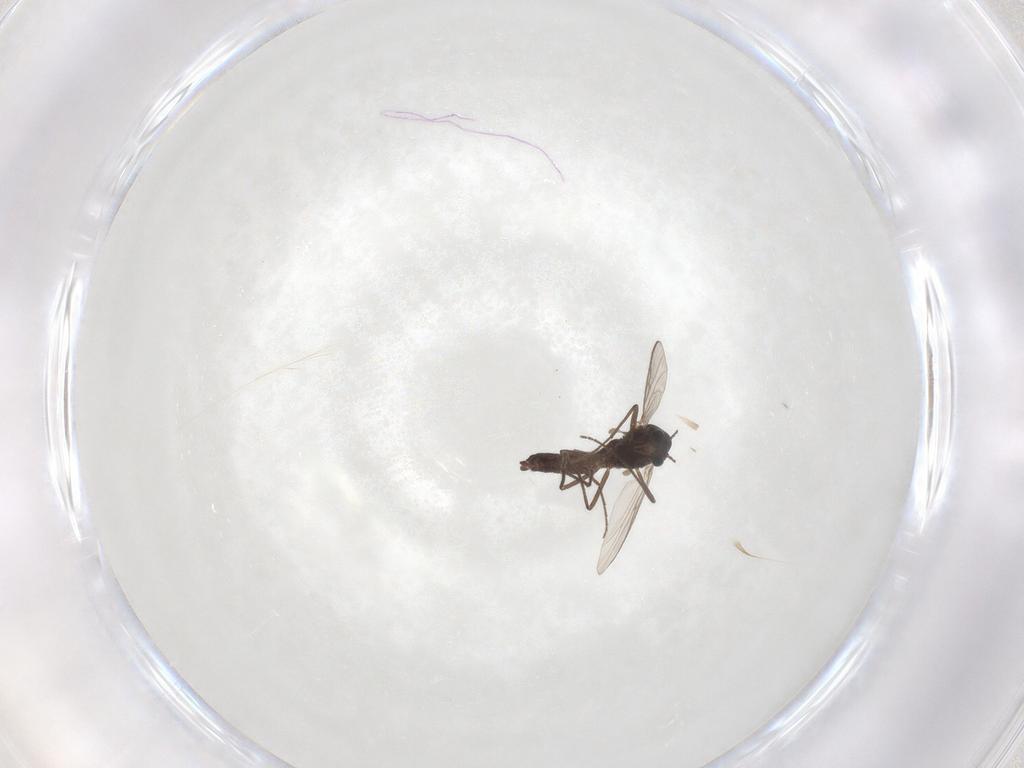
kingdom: Animalia
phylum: Arthropoda
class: Insecta
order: Diptera
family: Chironomidae
